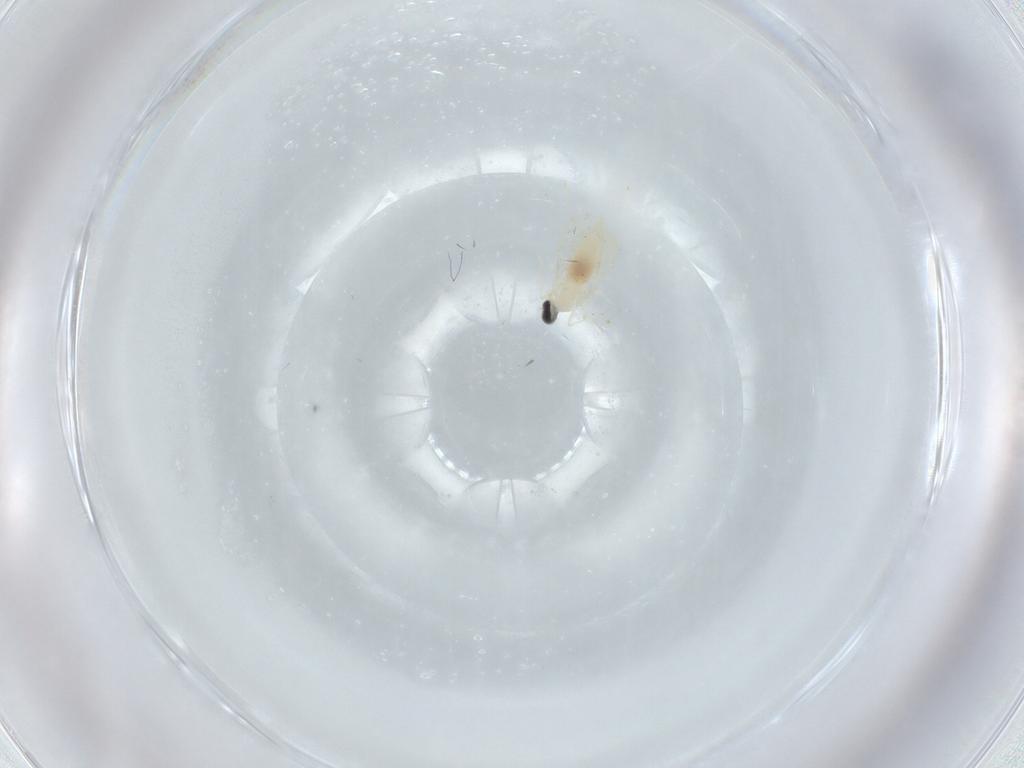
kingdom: Animalia
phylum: Arthropoda
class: Insecta
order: Diptera
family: Cecidomyiidae
